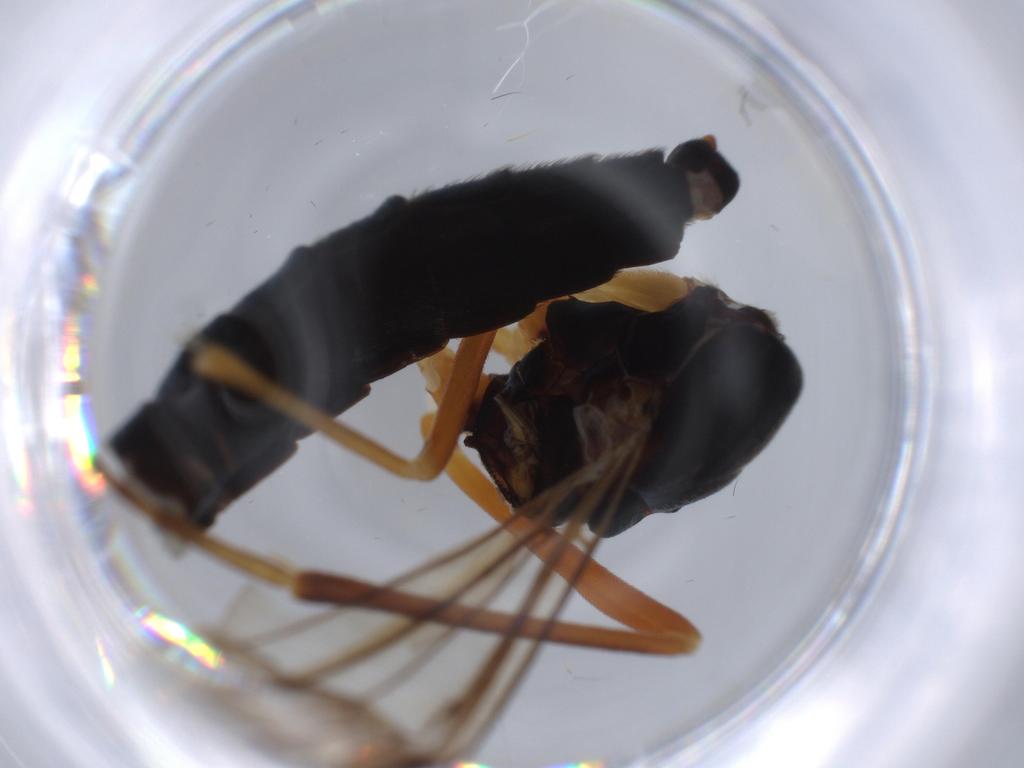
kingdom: Animalia
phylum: Arthropoda
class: Insecta
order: Diptera
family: Xylophagidae
